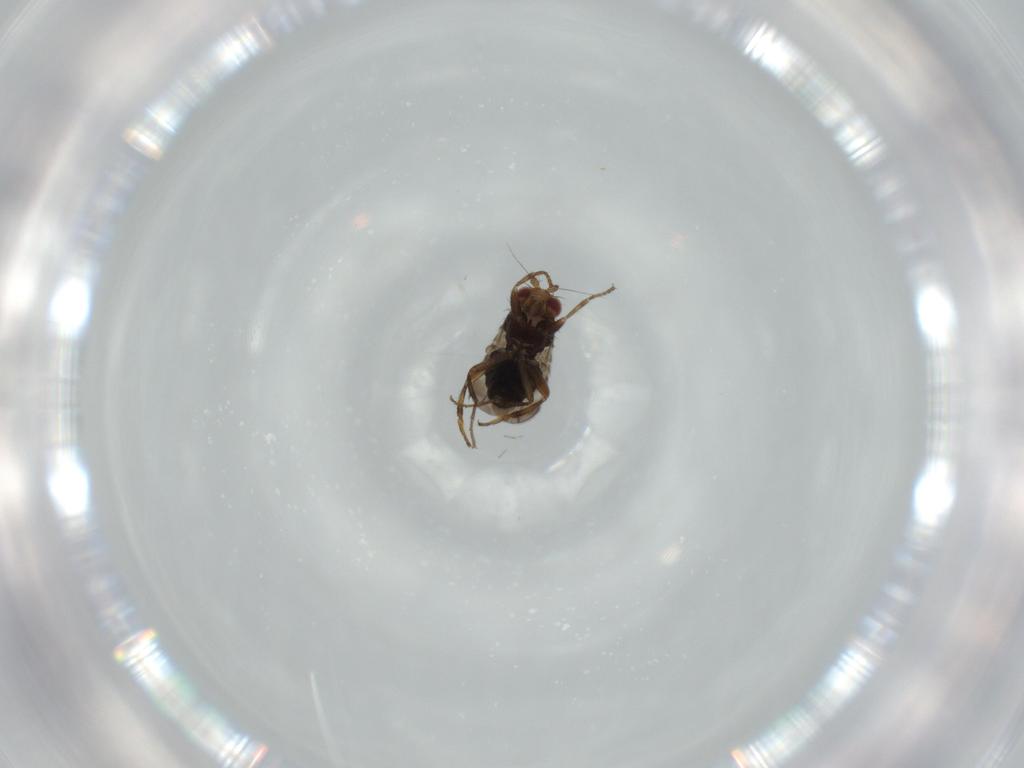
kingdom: Animalia
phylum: Arthropoda
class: Insecta
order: Diptera
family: Sphaeroceridae
